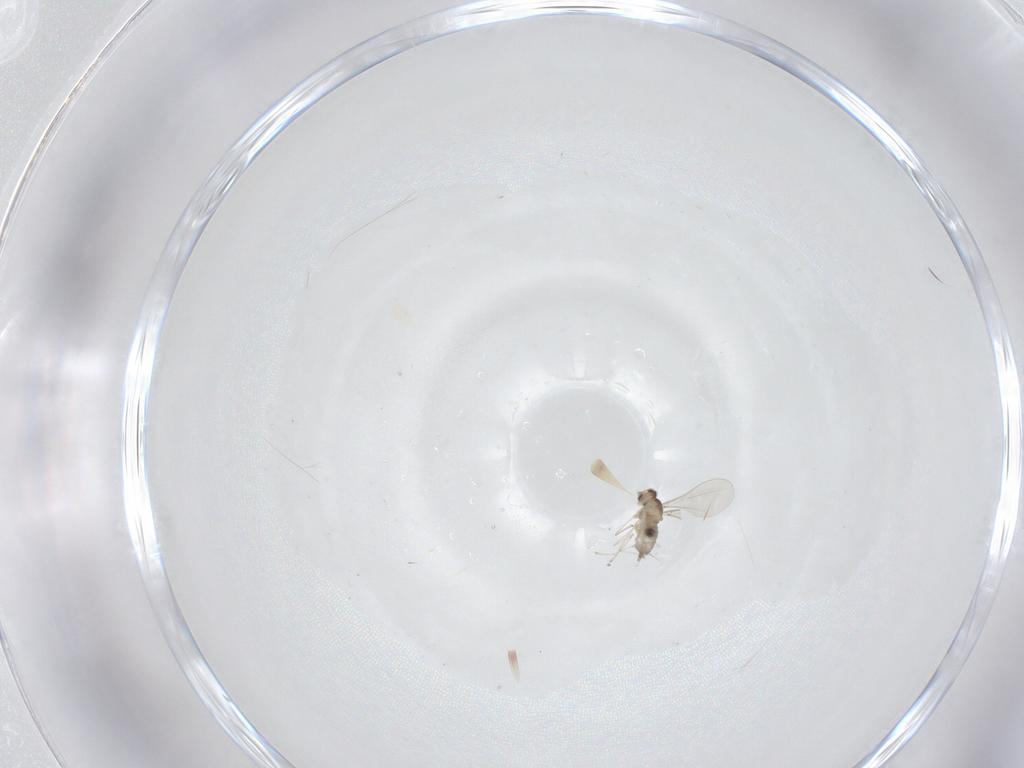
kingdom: Animalia
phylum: Arthropoda
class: Insecta
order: Diptera
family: Cecidomyiidae
